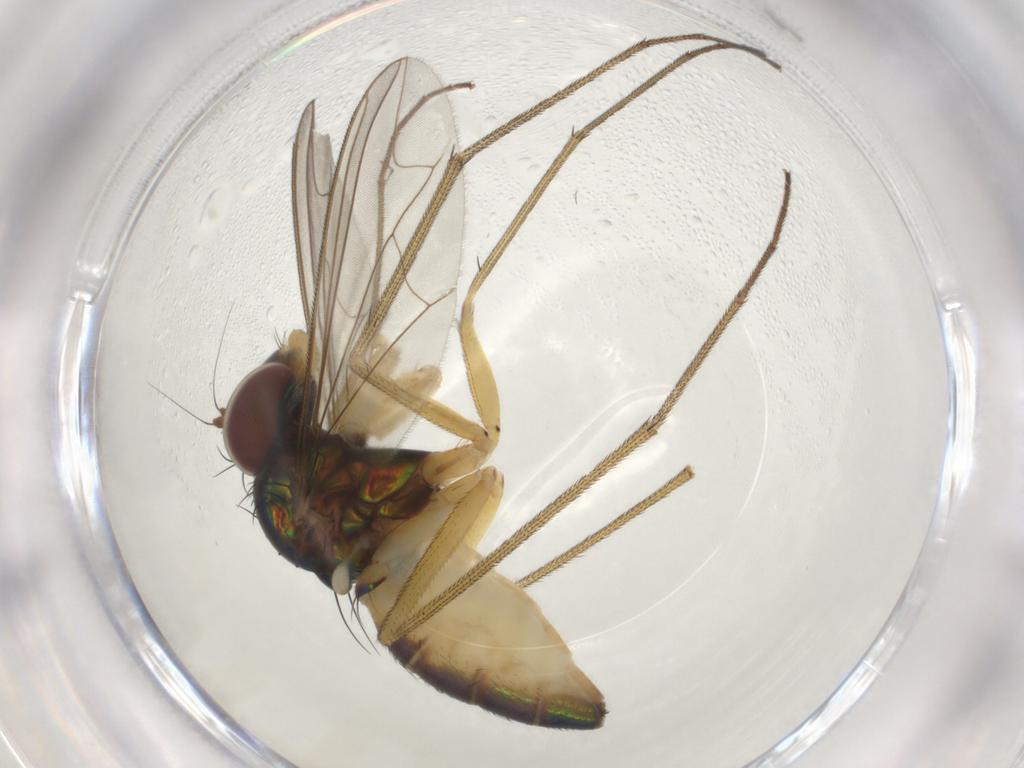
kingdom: Animalia
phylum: Arthropoda
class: Insecta
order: Diptera
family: Dolichopodidae
